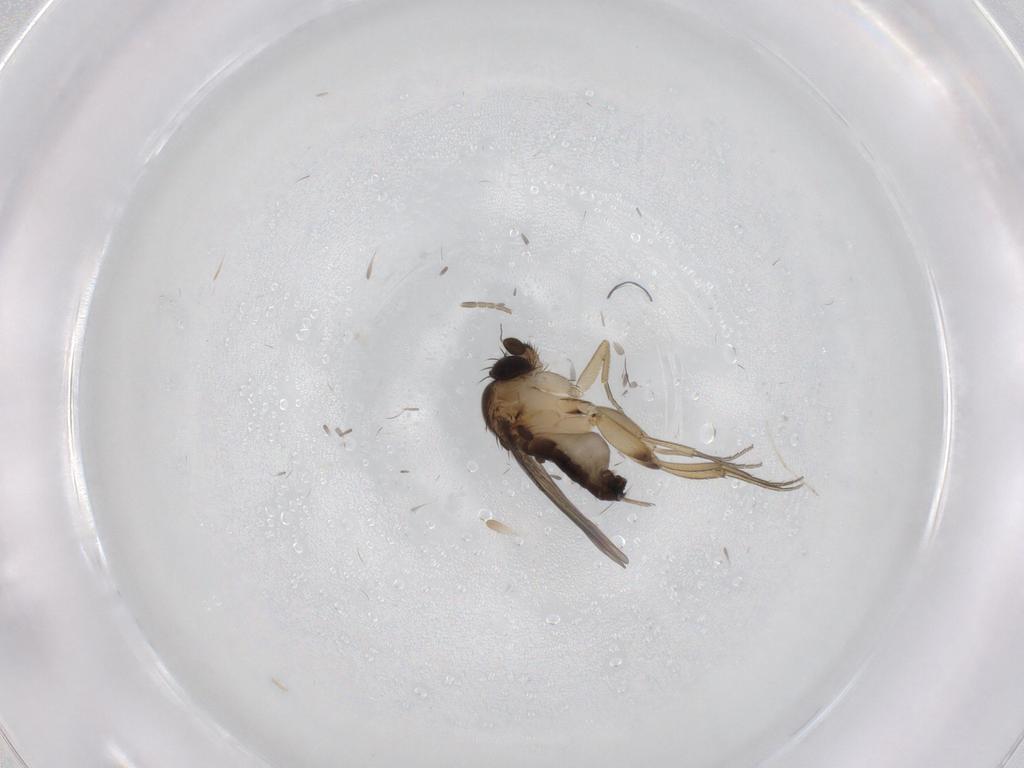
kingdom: Animalia
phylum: Arthropoda
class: Insecta
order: Diptera
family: Phoridae
